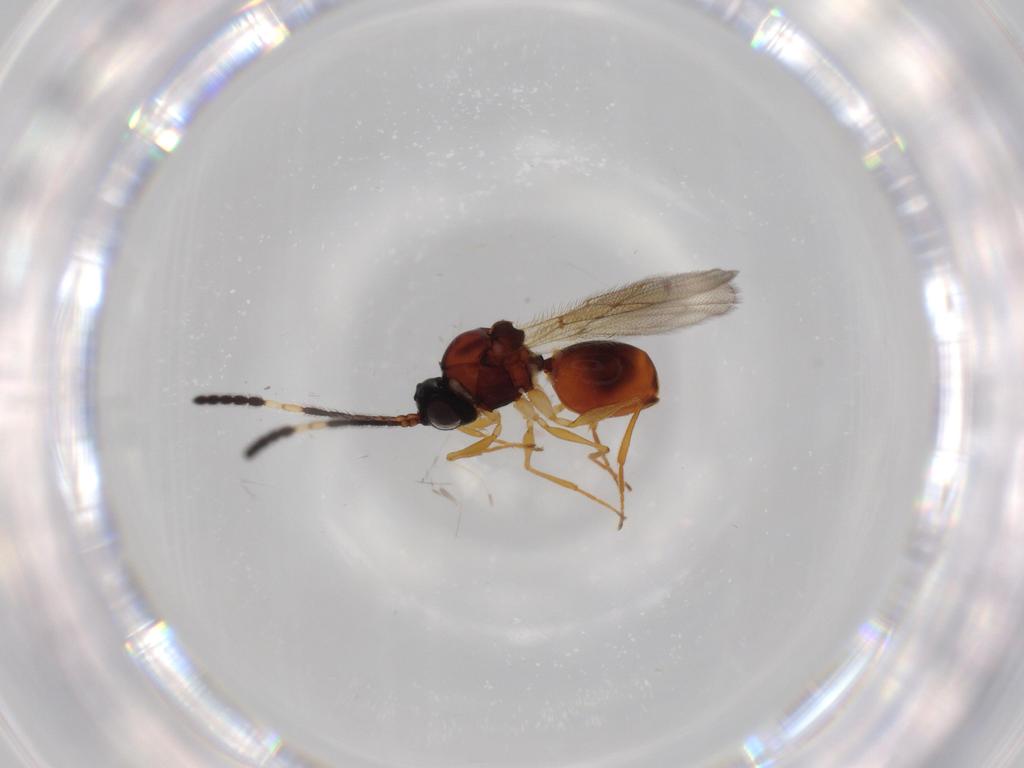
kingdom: Animalia
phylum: Arthropoda
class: Insecta
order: Hymenoptera
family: Figitidae
